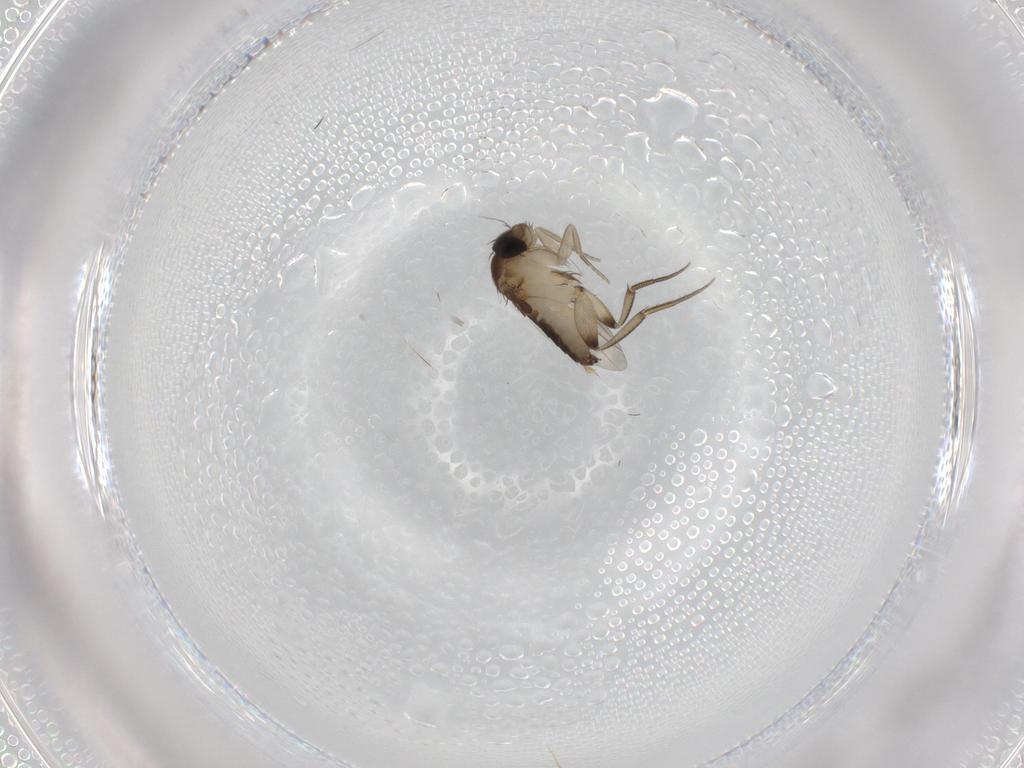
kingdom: Animalia
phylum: Arthropoda
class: Insecta
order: Diptera
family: Phoridae
